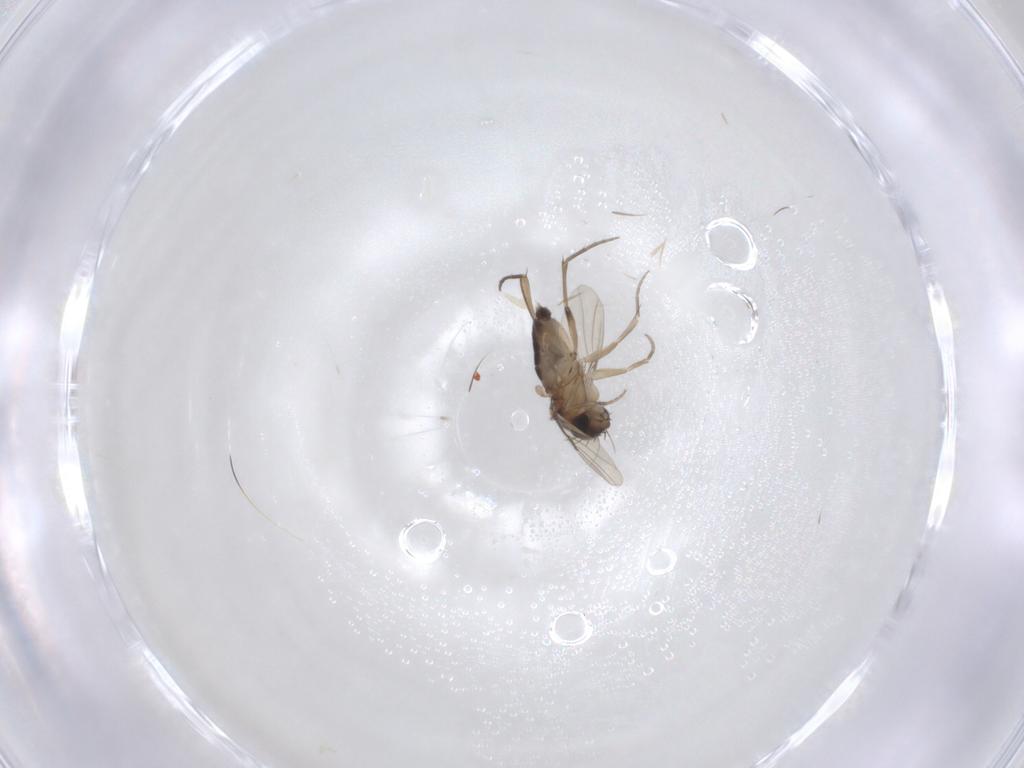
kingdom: Animalia
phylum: Arthropoda
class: Insecta
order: Diptera
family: Phoridae
